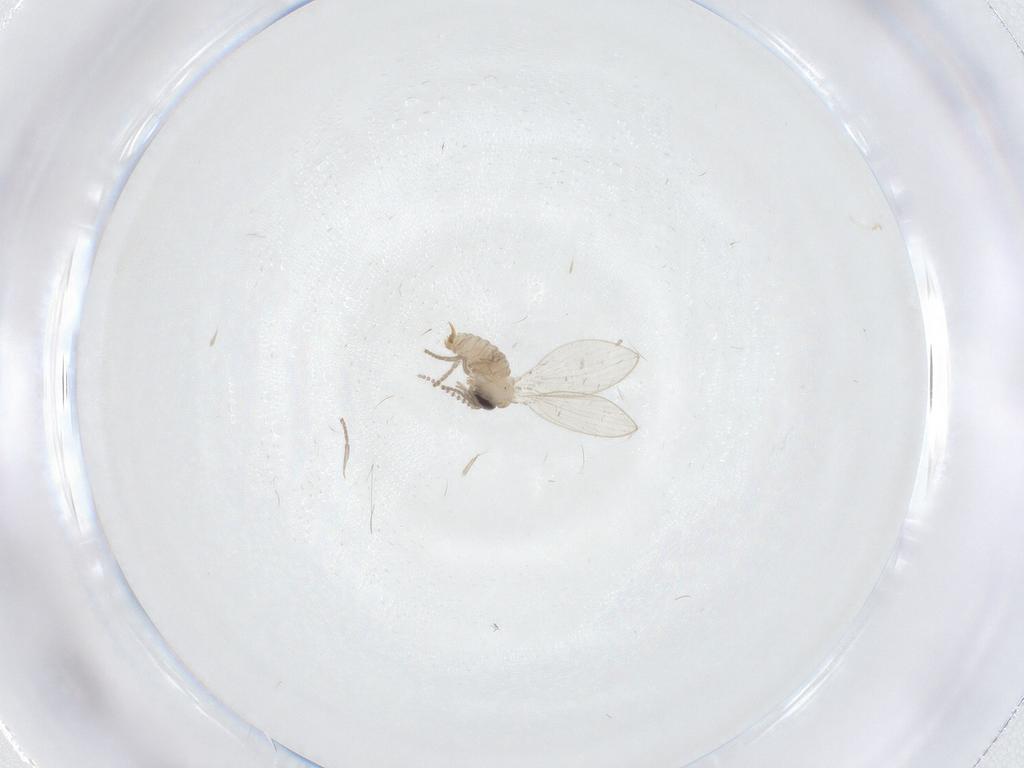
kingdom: Animalia
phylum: Arthropoda
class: Insecta
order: Diptera
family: Psychodidae
